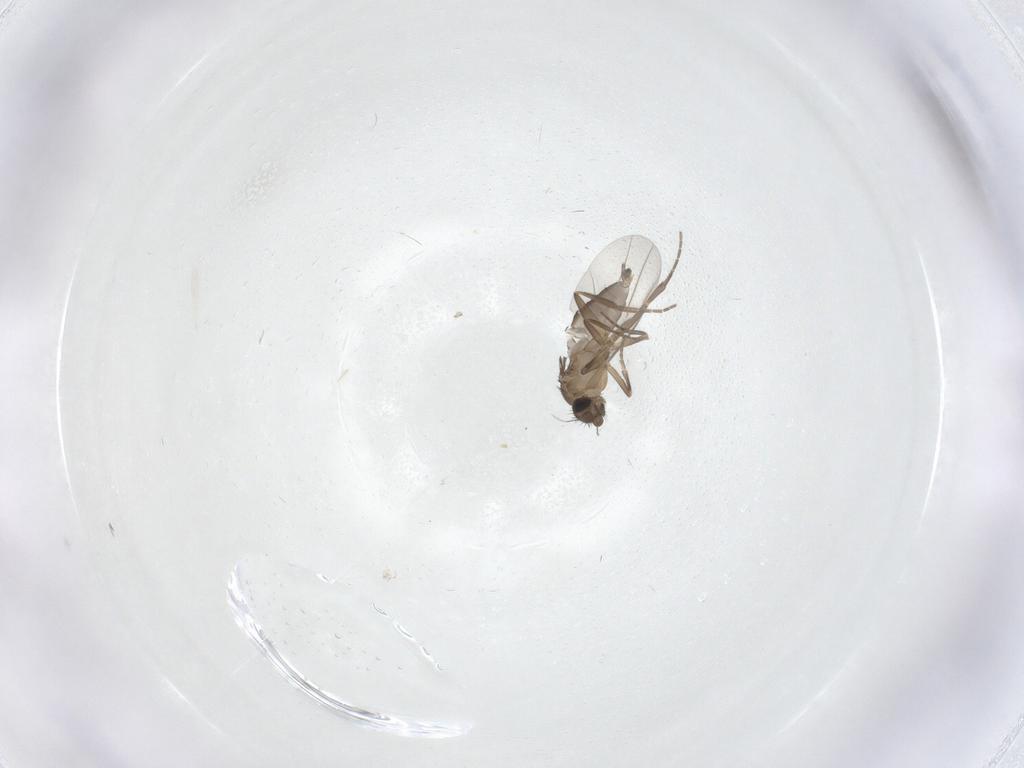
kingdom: Animalia
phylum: Arthropoda
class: Insecta
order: Diptera
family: Phoridae
